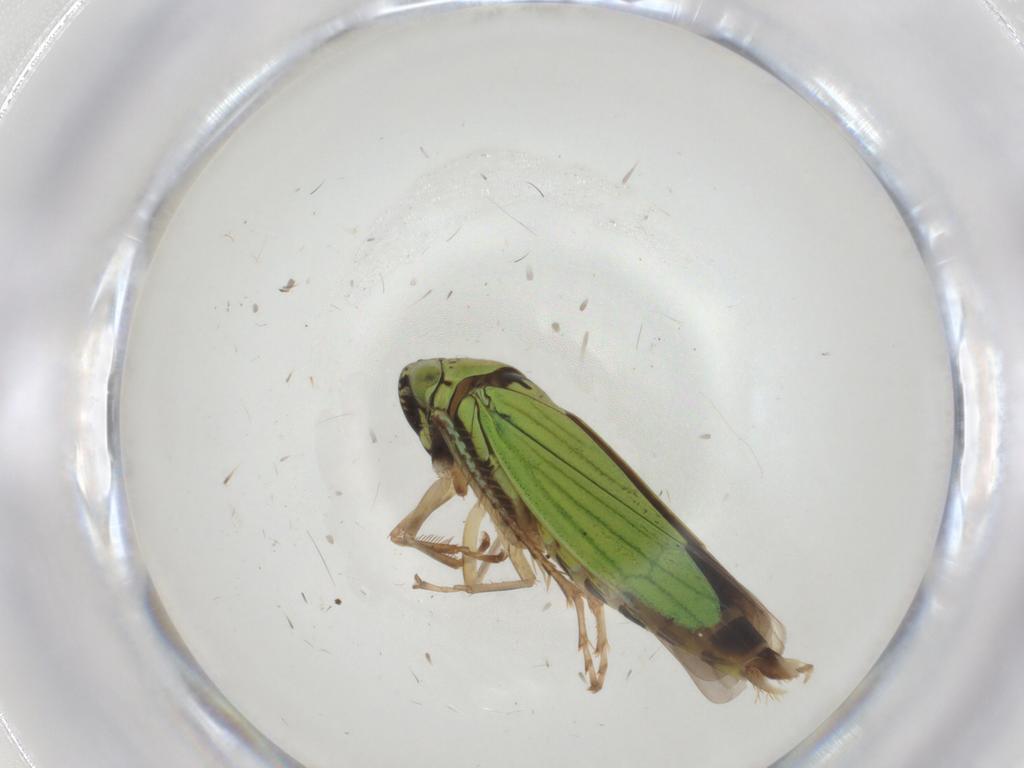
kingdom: Animalia
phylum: Arthropoda
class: Insecta
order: Hemiptera
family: Cicadellidae
